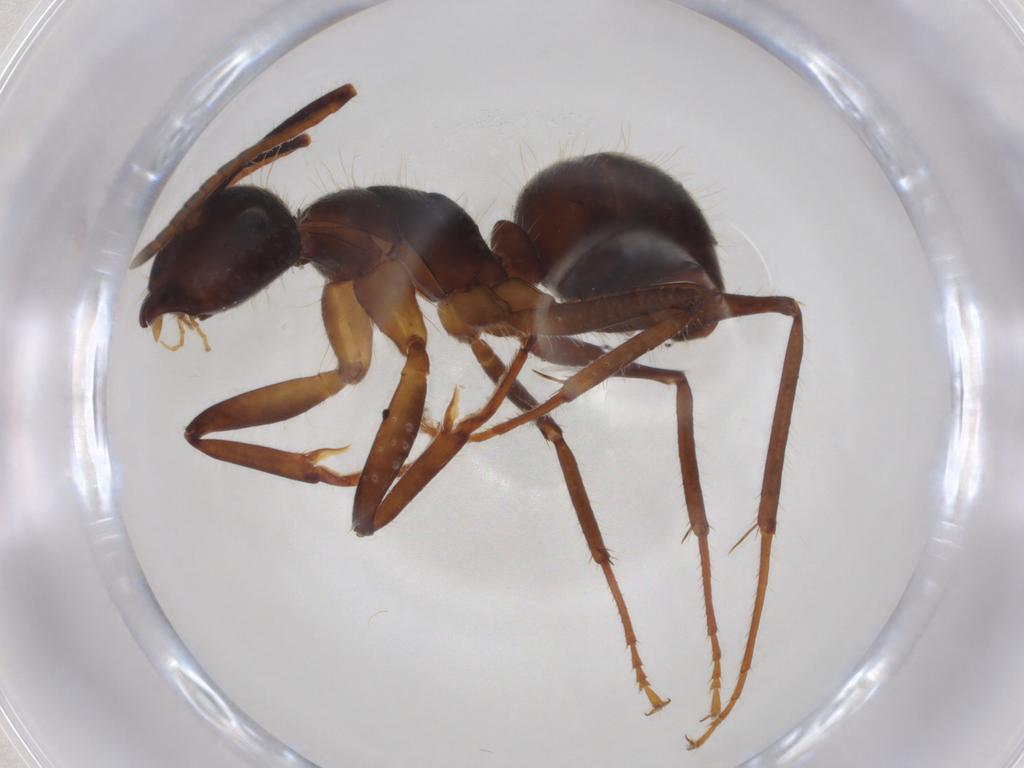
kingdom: Animalia
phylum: Arthropoda
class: Insecta
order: Hymenoptera
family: Formicidae
